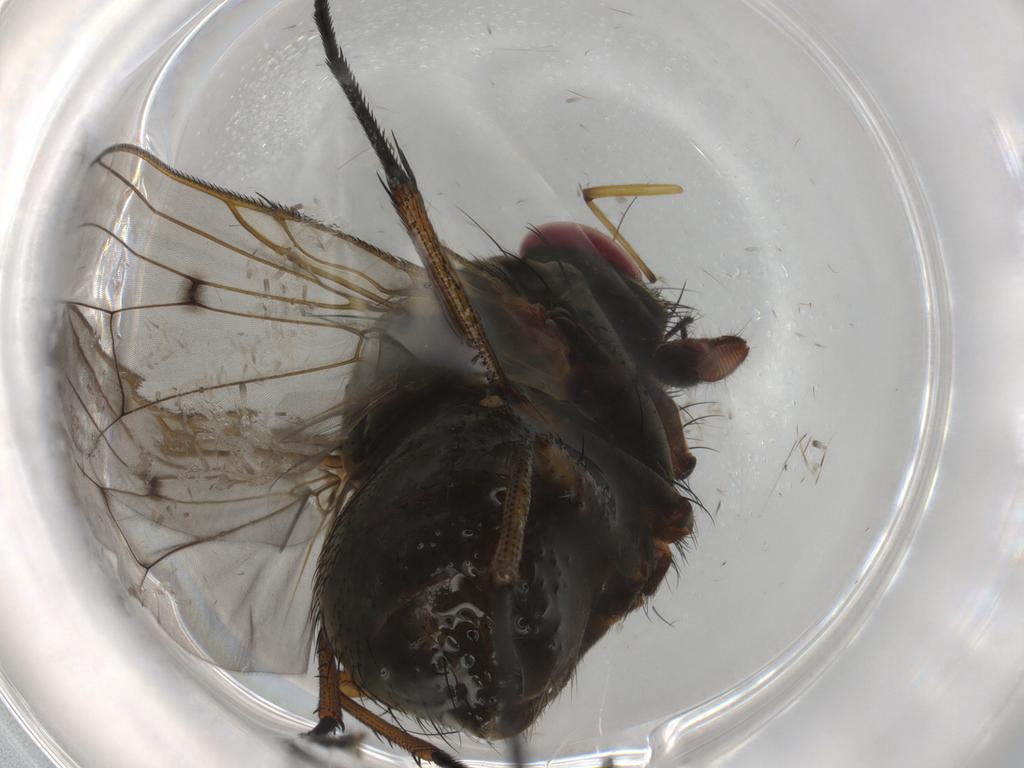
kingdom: Animalia
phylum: Arthropoda
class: Insecta
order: Diptera
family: Muscidae
